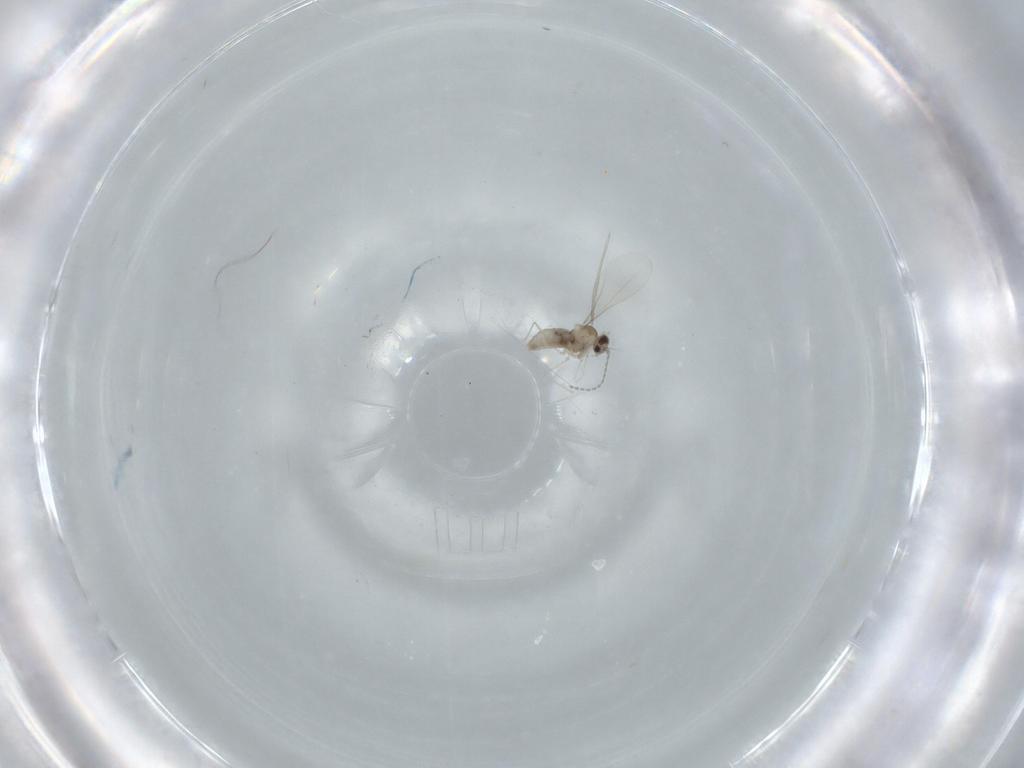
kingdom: Animalia
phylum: Arthropoda
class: Insecta
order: Diptera
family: Cecidomyiidae
